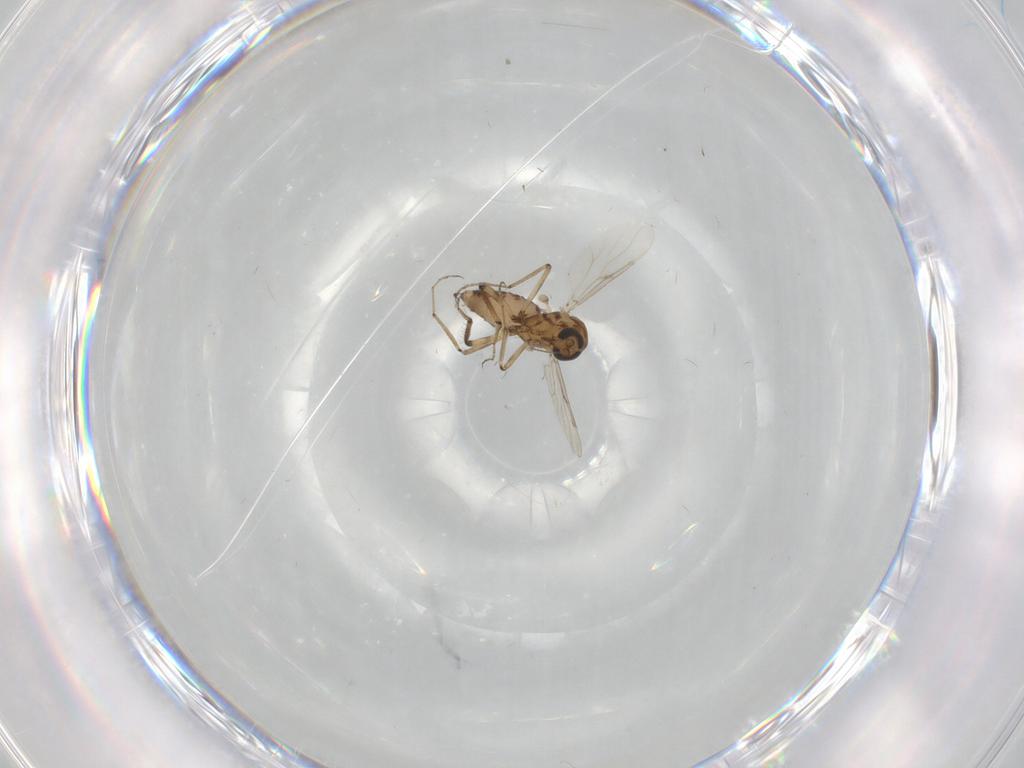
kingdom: Animalia
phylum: Arthropoda
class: Insecta
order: Diptera
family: Ceratopogonidae
